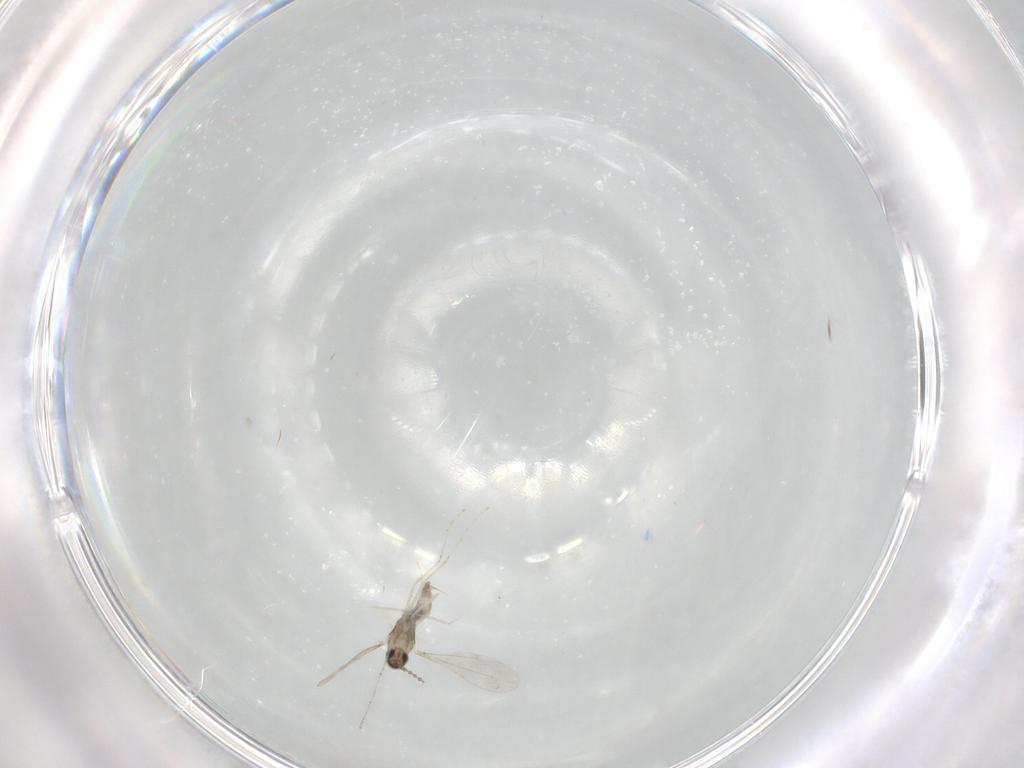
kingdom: Animalia
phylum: Arthropoda
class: Insecta
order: Diptera
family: Cecidomyiidae
